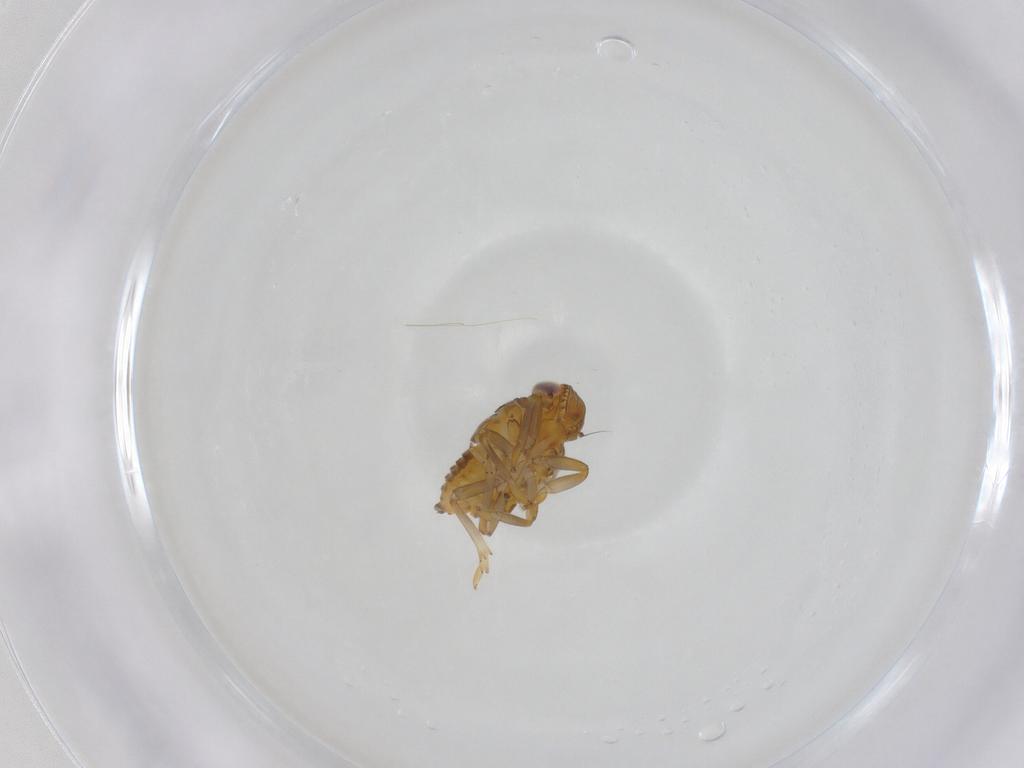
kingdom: Animalia
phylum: Arthropoda
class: Insecta
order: Hemiptera
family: Issidae
